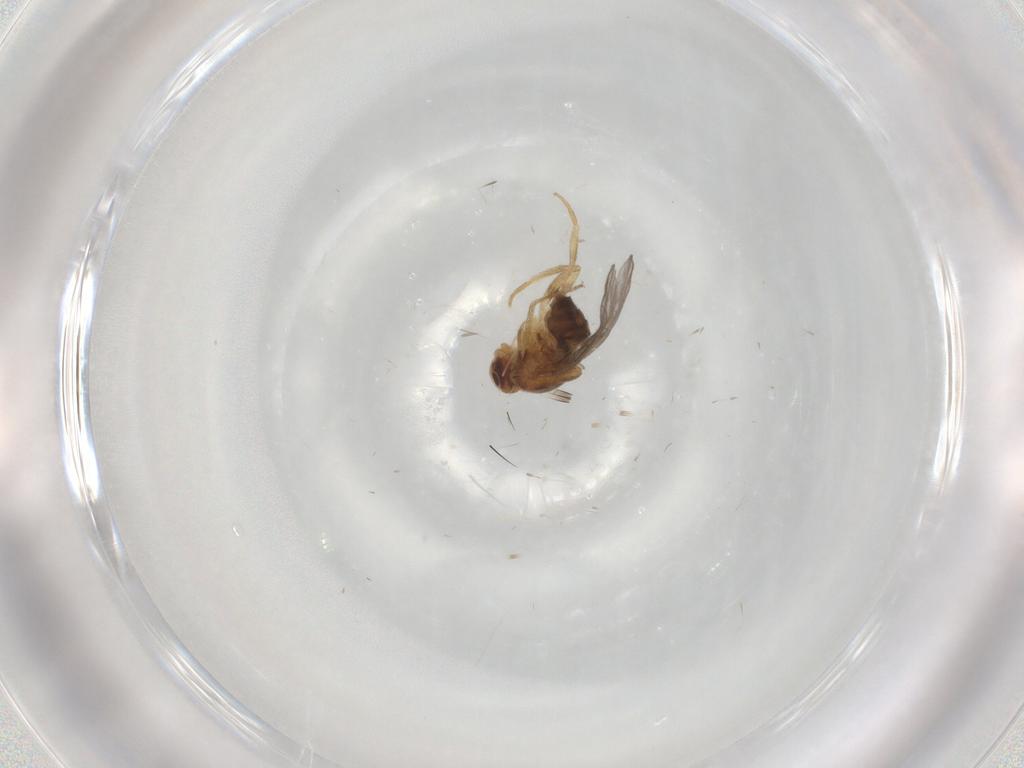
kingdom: Animalia
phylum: Arthropoda
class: Insecta
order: Diptera
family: Chloropidae
